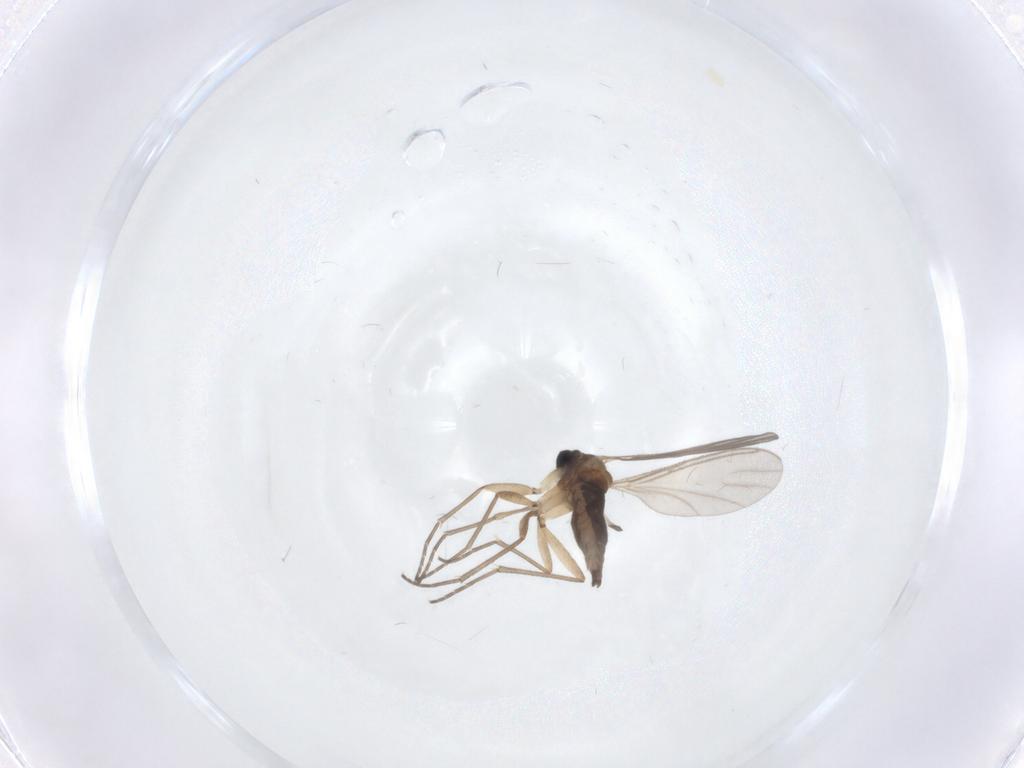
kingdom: Animalia
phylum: Arthropoda
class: Insecta
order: Diptera
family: Sciaridae
